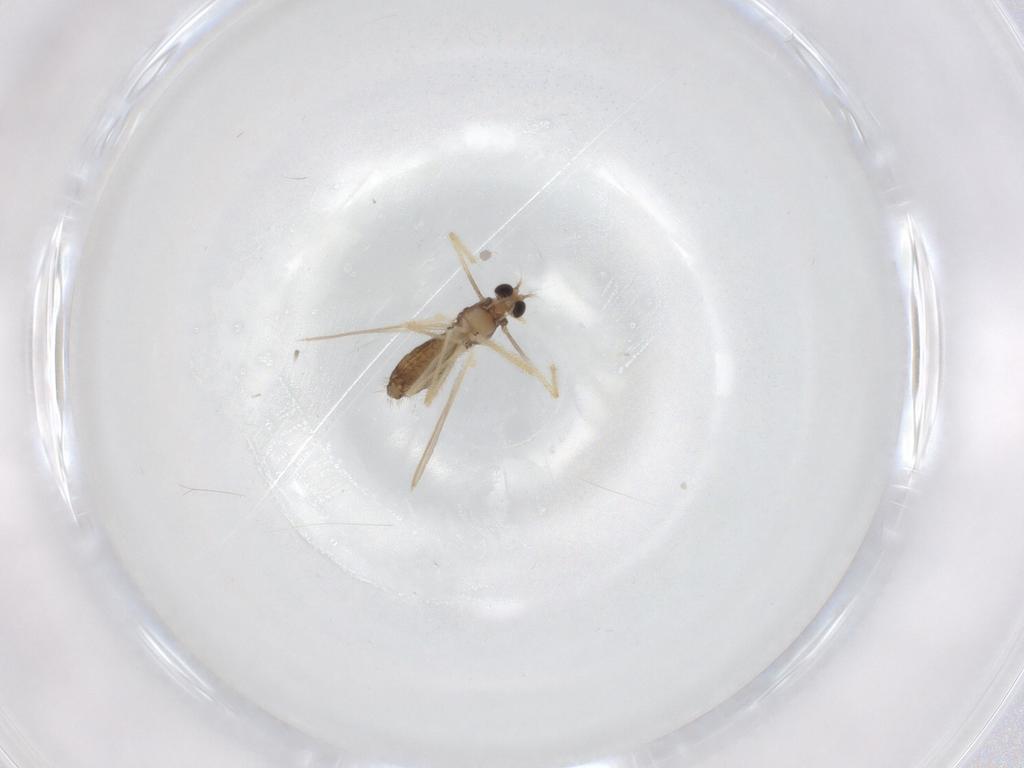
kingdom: Animalia
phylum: Arthropoda
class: Insecta
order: Diptera
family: Chironomidae
